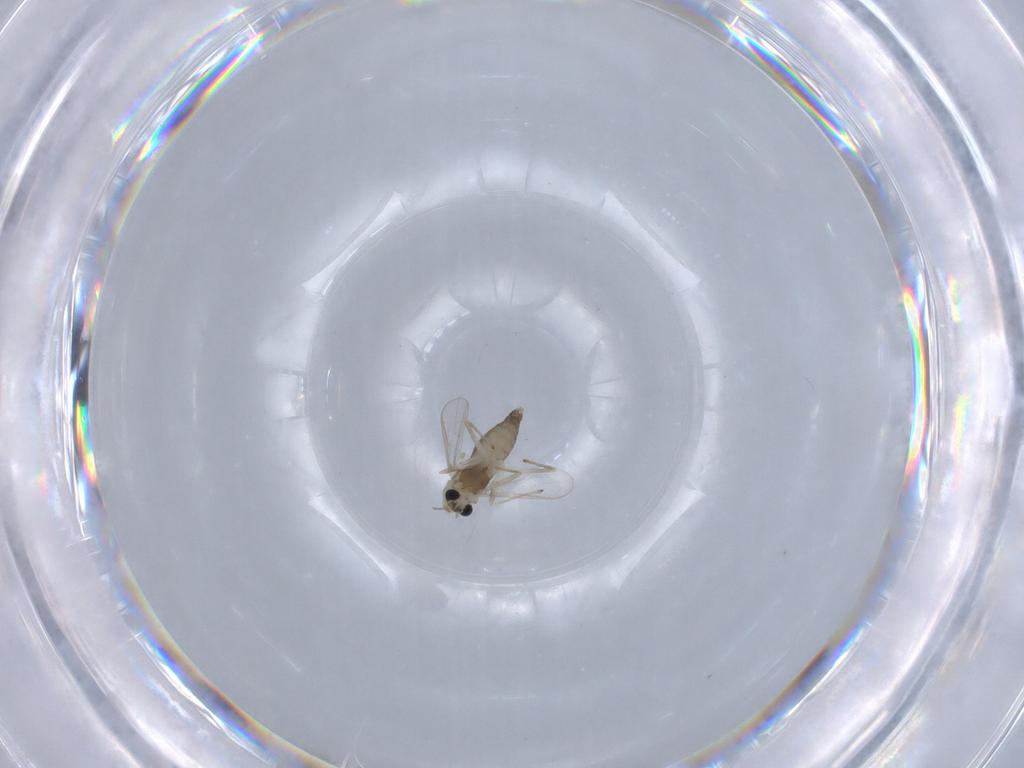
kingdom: Animalia
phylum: Arthropoda
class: Insecta
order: Diptera
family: Chironomidae
